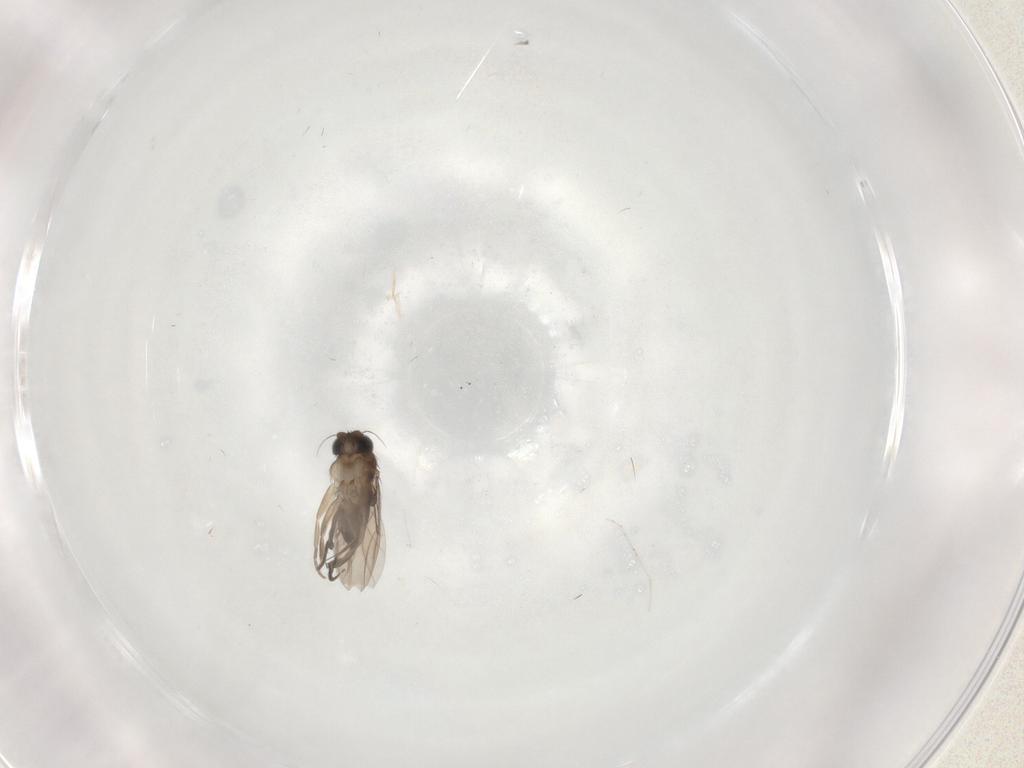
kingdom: Animalia
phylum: Arthropoda
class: Insecta
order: Diptera
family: Phoridae
